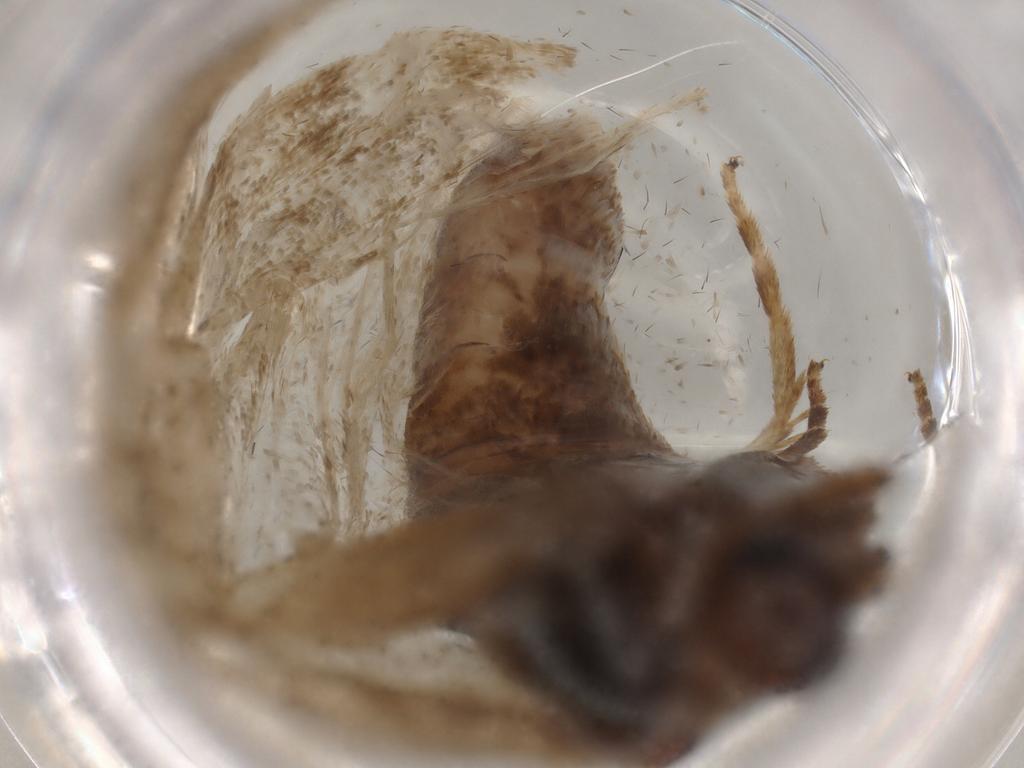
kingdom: Animalia
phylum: Arthropoda
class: Insecta
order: Lepidoptera
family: Geometridae
